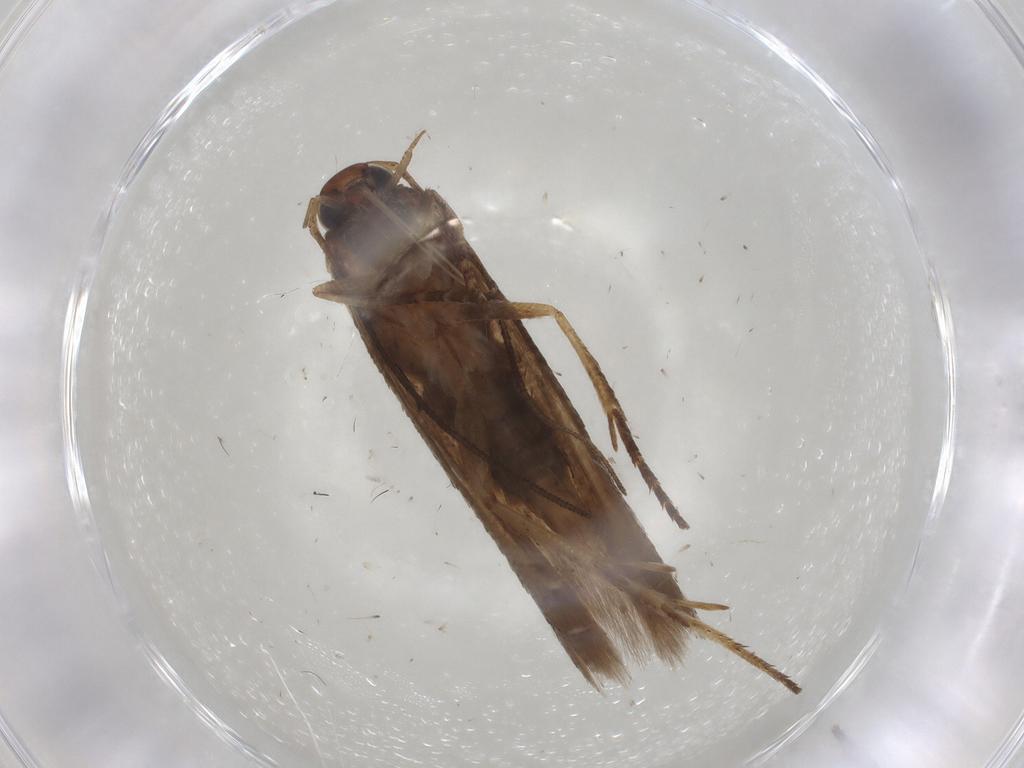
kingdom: Animalia
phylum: Arthropoda
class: Insecta
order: Lepidoptera
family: Gelechiidae
